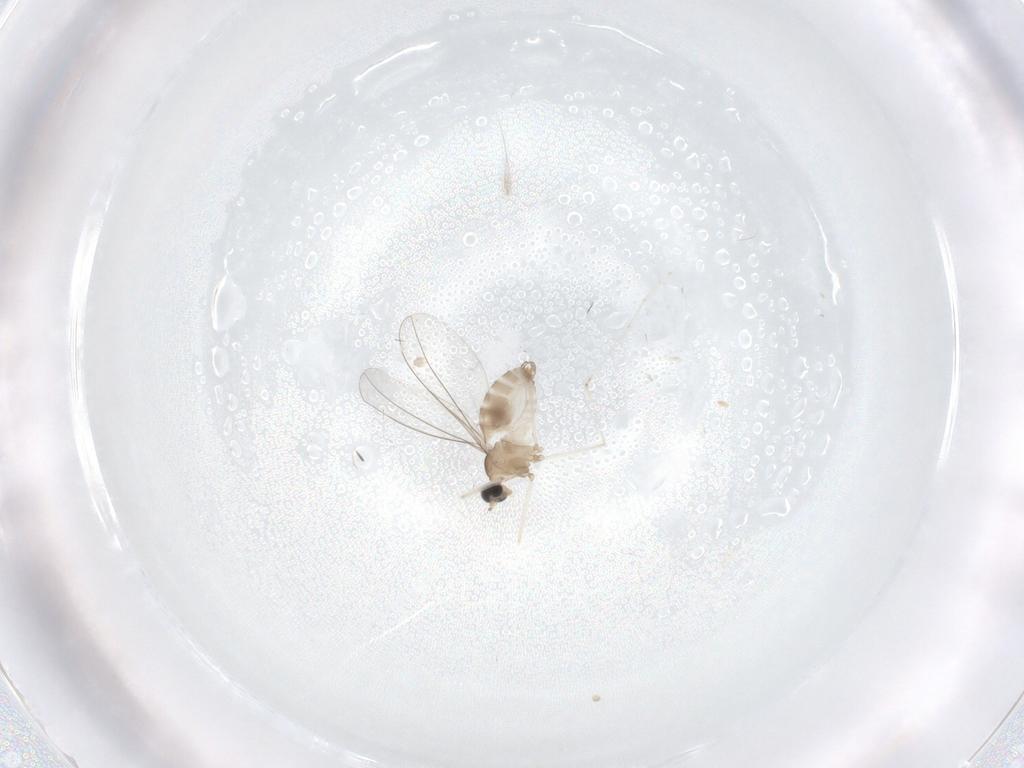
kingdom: Animalia
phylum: Arthropoda
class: Insecta
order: Diptera
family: Cecidomyiidae
